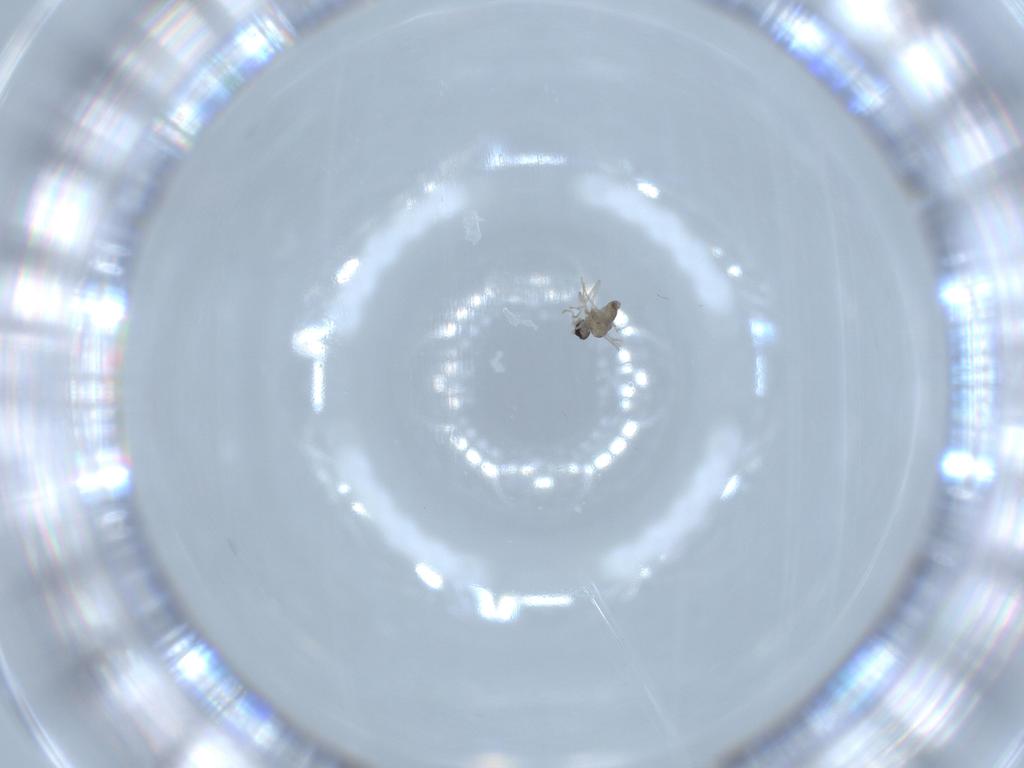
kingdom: Animalia
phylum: Arthropoda
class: Insecta
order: Diptera
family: Cecidomyiidae
